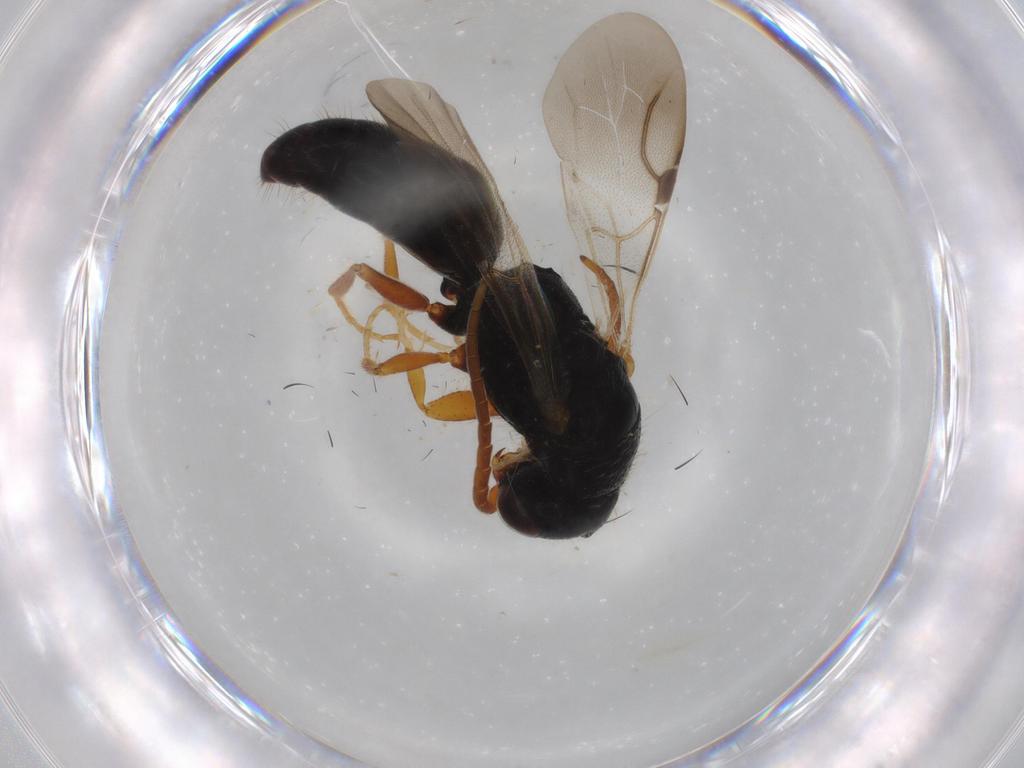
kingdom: Animalia
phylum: Arthropoda
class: Insecta
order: Hymenoptera
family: Bethylidae
